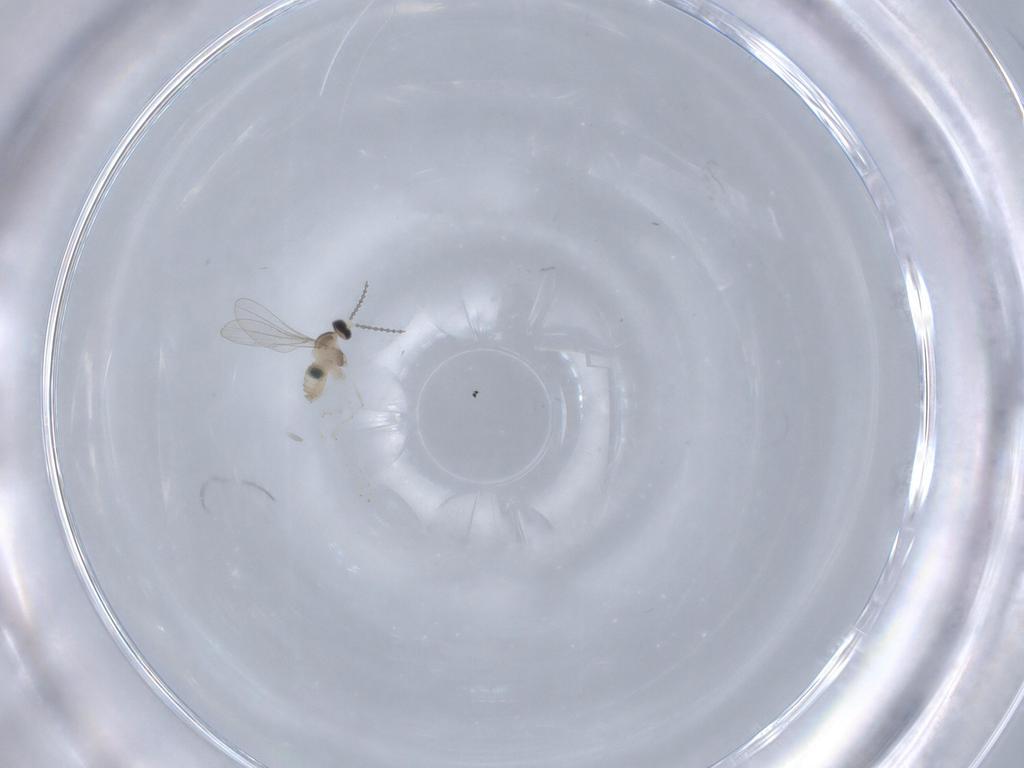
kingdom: Animalia
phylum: Arthropoda
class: Insecta
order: Diptera
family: Cecidomyiidae
